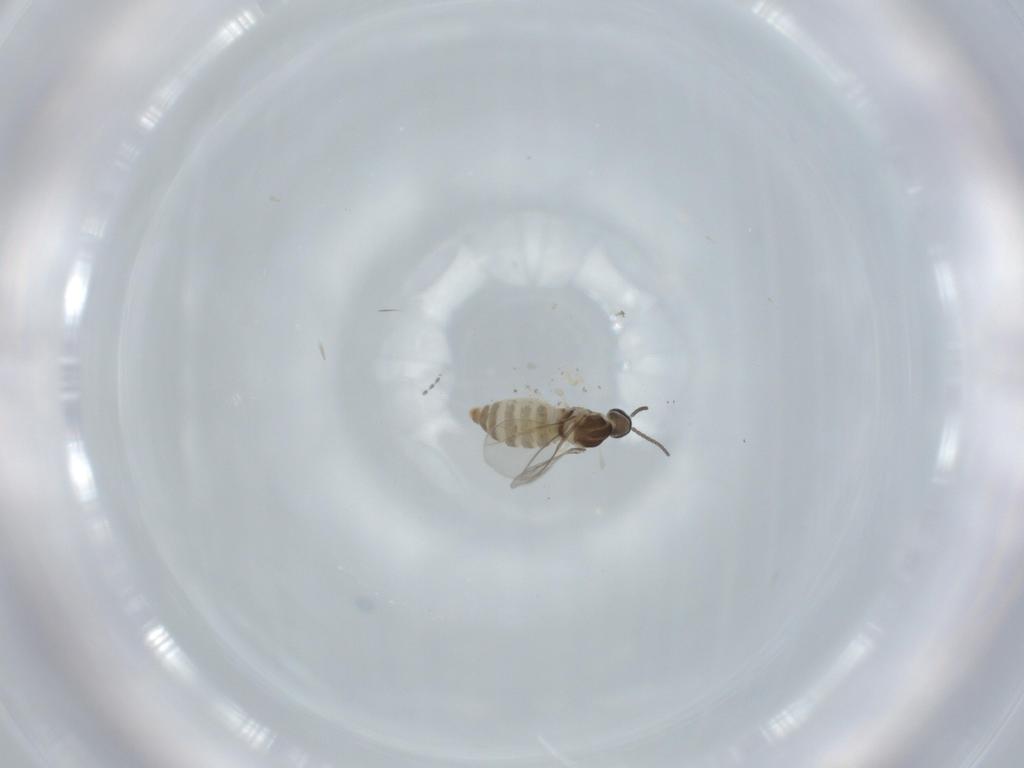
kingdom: Animalia
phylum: Arthropoda
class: Insecta
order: Diptera
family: Cecidomyiidae
